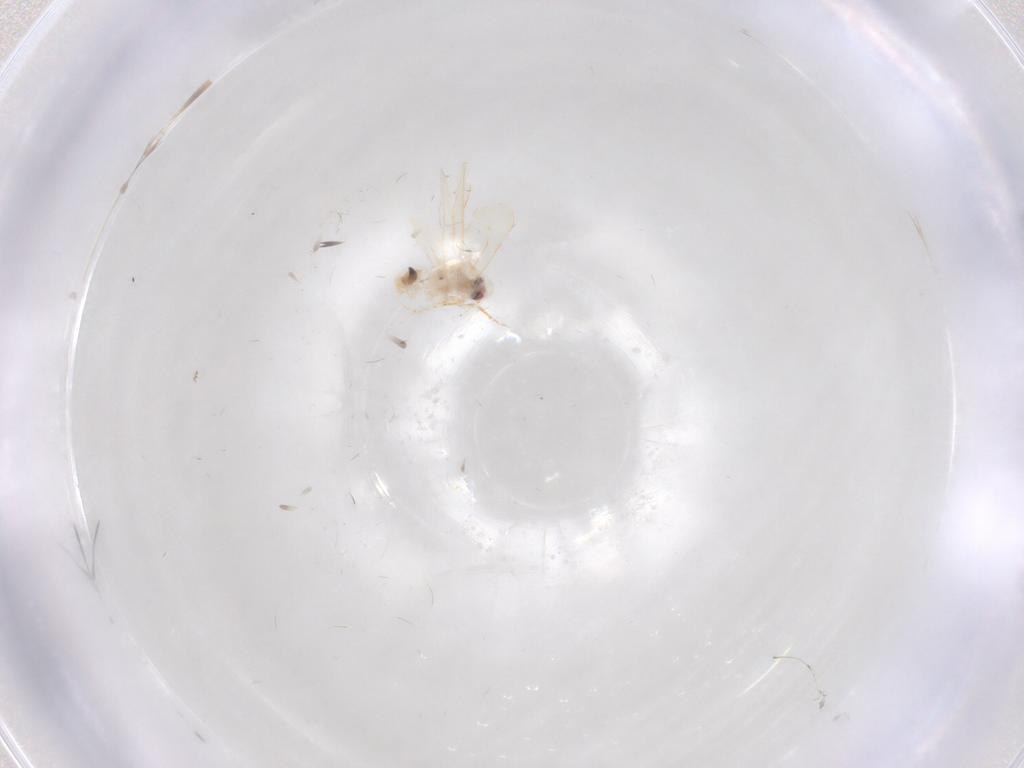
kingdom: Animalia
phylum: Arthropoda
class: Insecta
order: Hemiptera
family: Aleyrodidae
